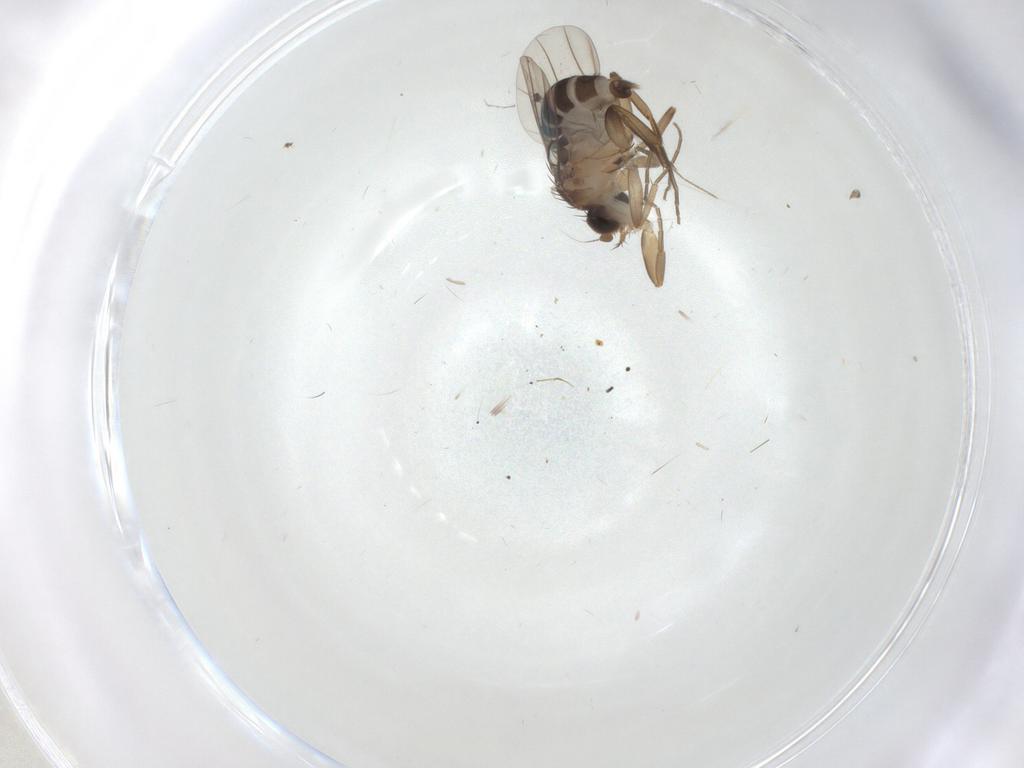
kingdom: Animalia
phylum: Arthropoda
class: Insecta
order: Diptera
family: Phoridae
